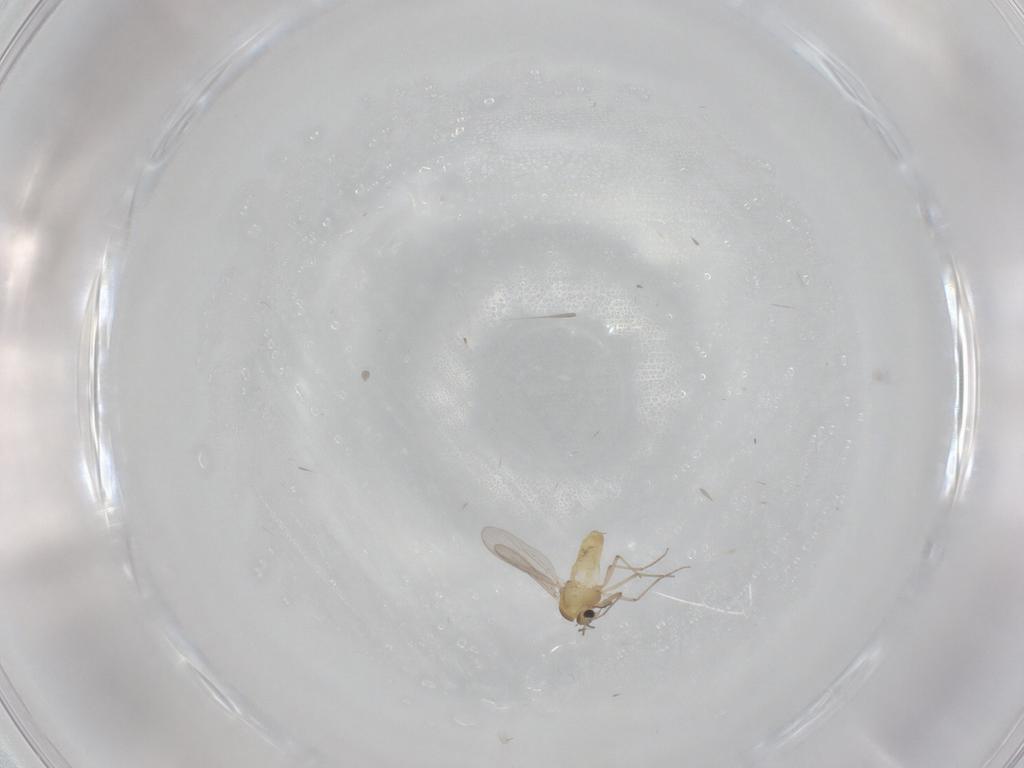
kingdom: Animalia
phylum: Arthropoda
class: Insecta
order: Diptera
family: Chironomidae
